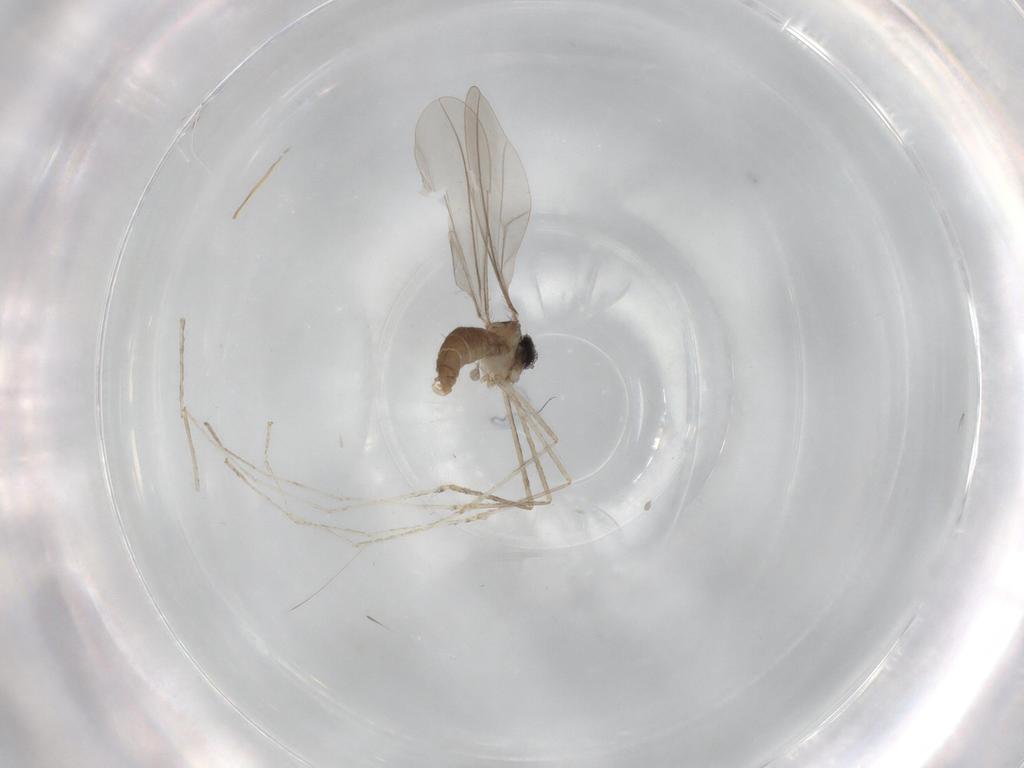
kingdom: Animalia
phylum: Arthropoda
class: Insecta
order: Diptera
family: Cecidomyiidae
